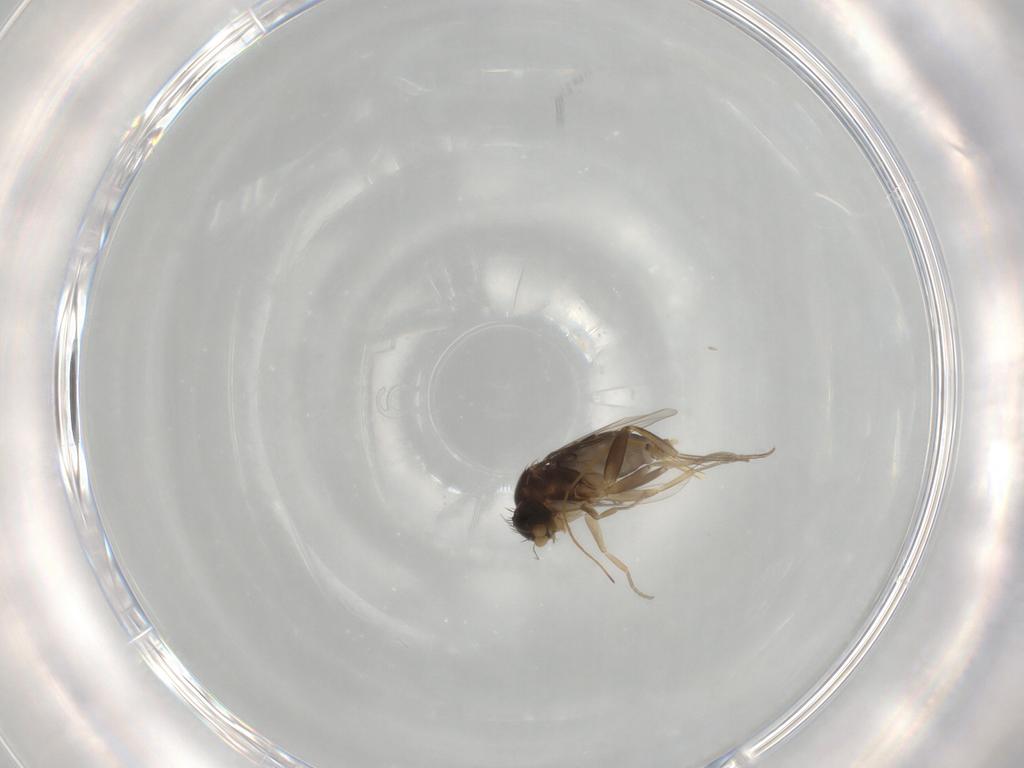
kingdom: Animalia
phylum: Arthropoda
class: Insecta
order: Diptera
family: Phoridae
